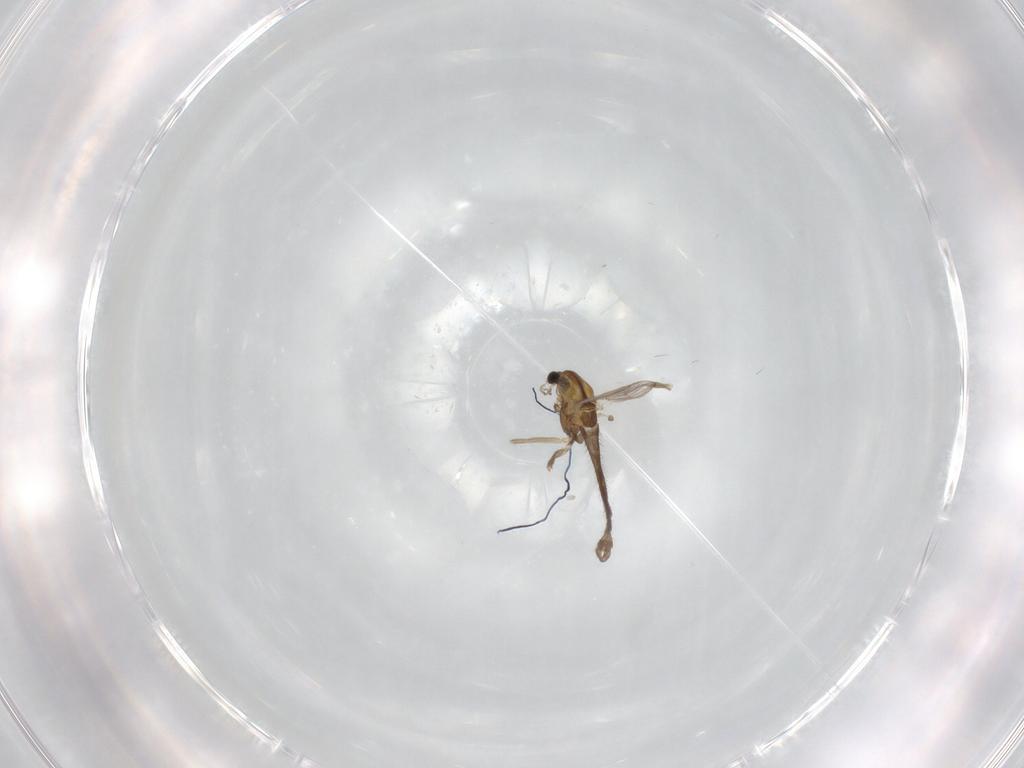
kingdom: Animalia
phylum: Arthropoda
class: Insecta
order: Diptera
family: Chironomidae
